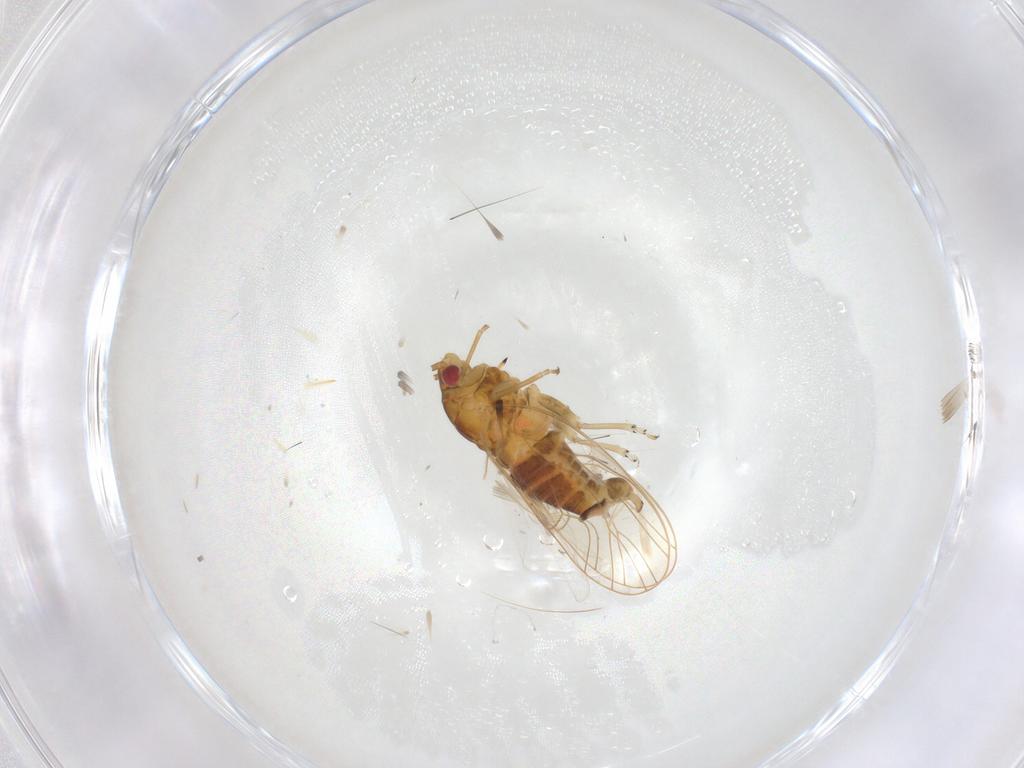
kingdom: Animalia
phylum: Arthropoda
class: Insecta
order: Hemiptera
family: Psyllidae
